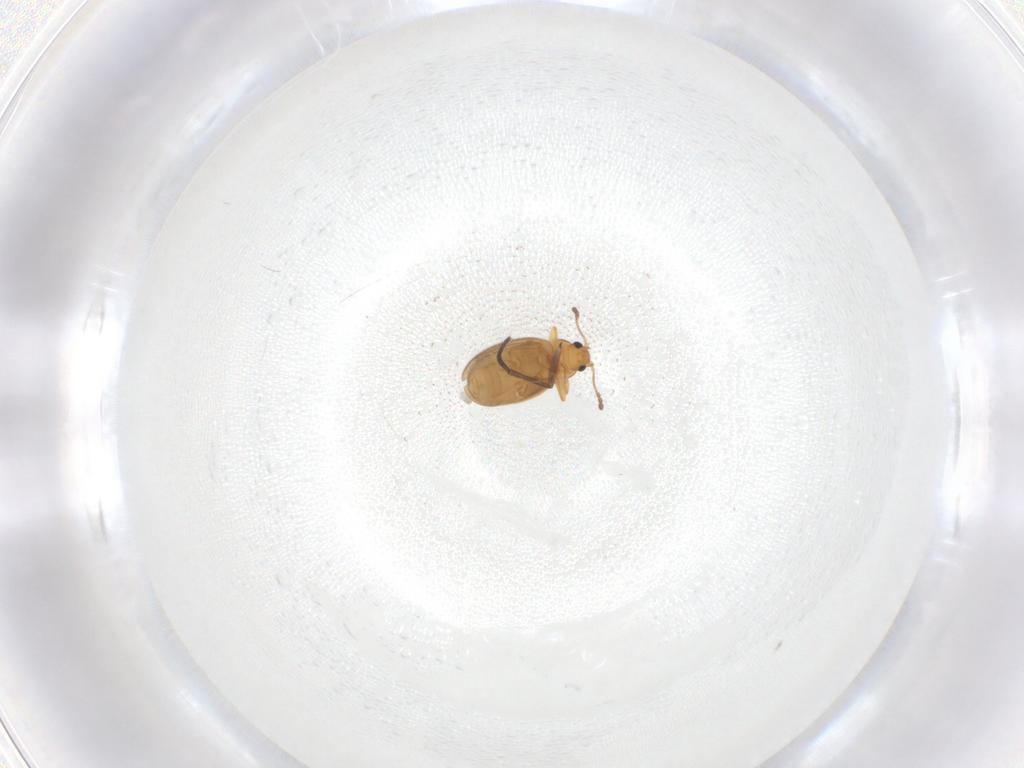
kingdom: Animalia
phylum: Arthropoda
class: Insecta
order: Coleoptera
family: Latridiidae
